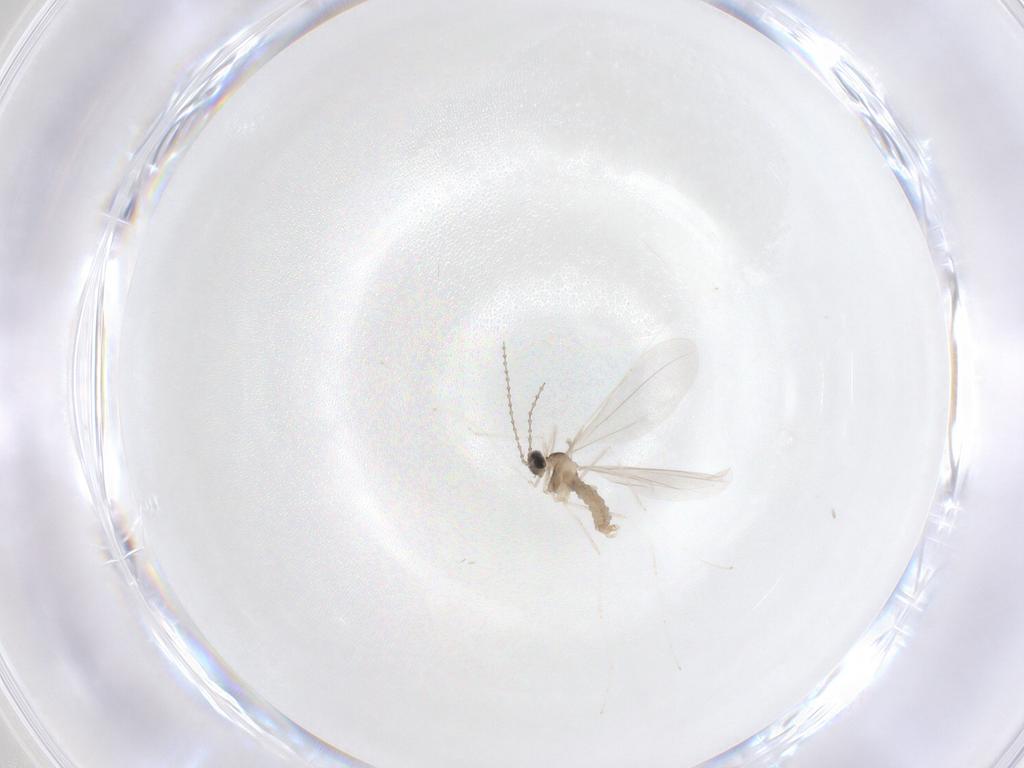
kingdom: Animalia
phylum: Arthropoda
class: Insecta
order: Diptera
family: Cecidomyiidae
